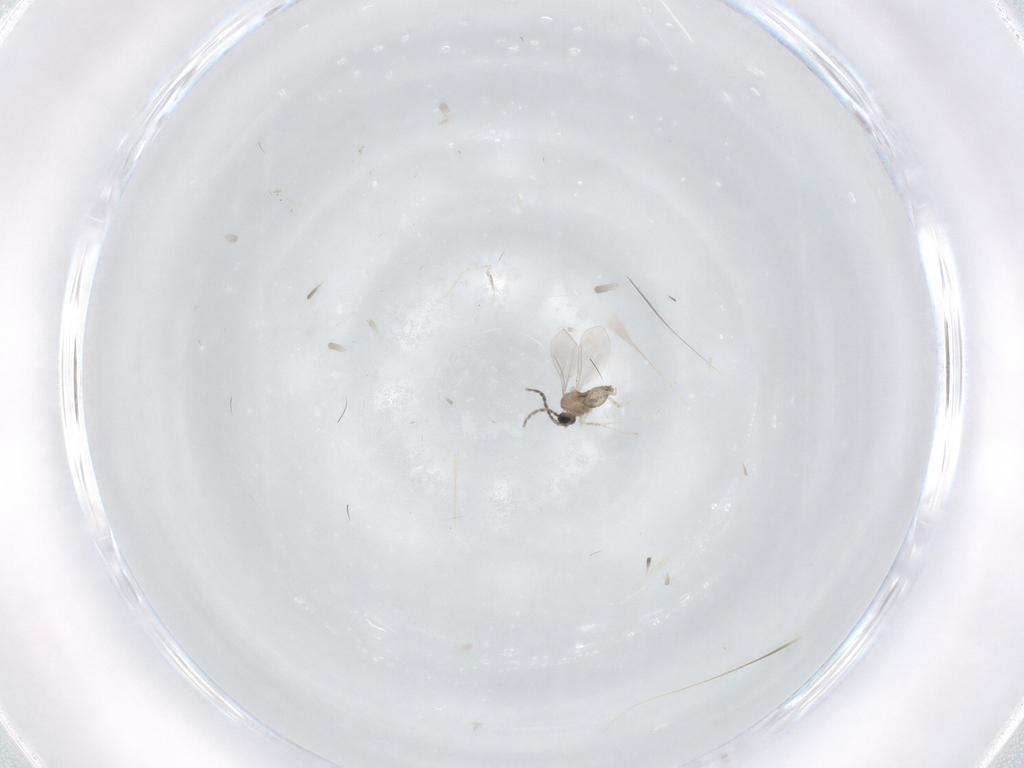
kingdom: Animalia
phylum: Arthropoda
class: Insecta
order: Diptera
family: Cecidomyiidae
